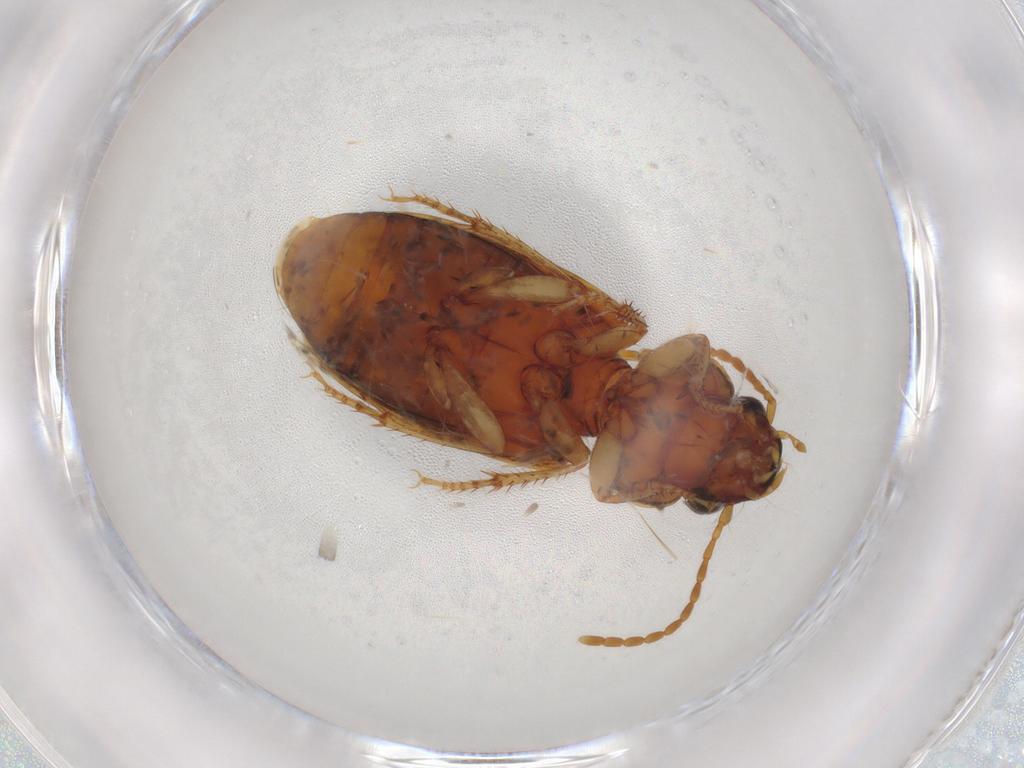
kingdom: Animalia
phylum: Arthropoda
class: Insecta
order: Coleoptera
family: Carabidae
